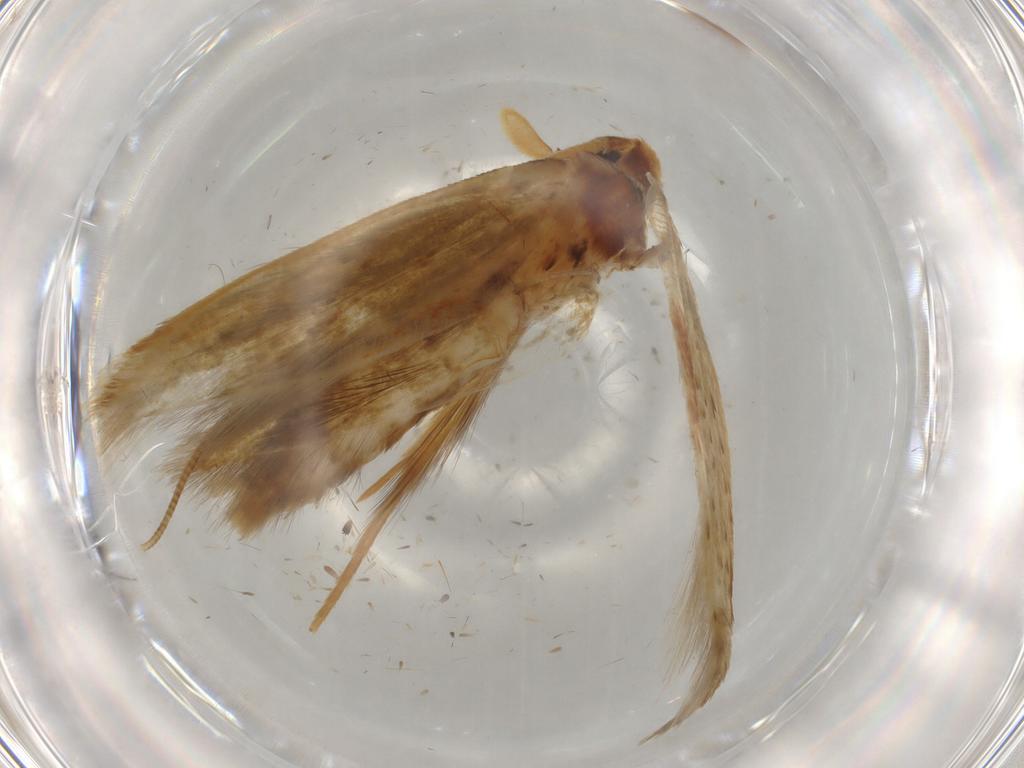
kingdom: Animalia
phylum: Arthropoda
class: Insecta
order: Lepidoptera
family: Tineidae
